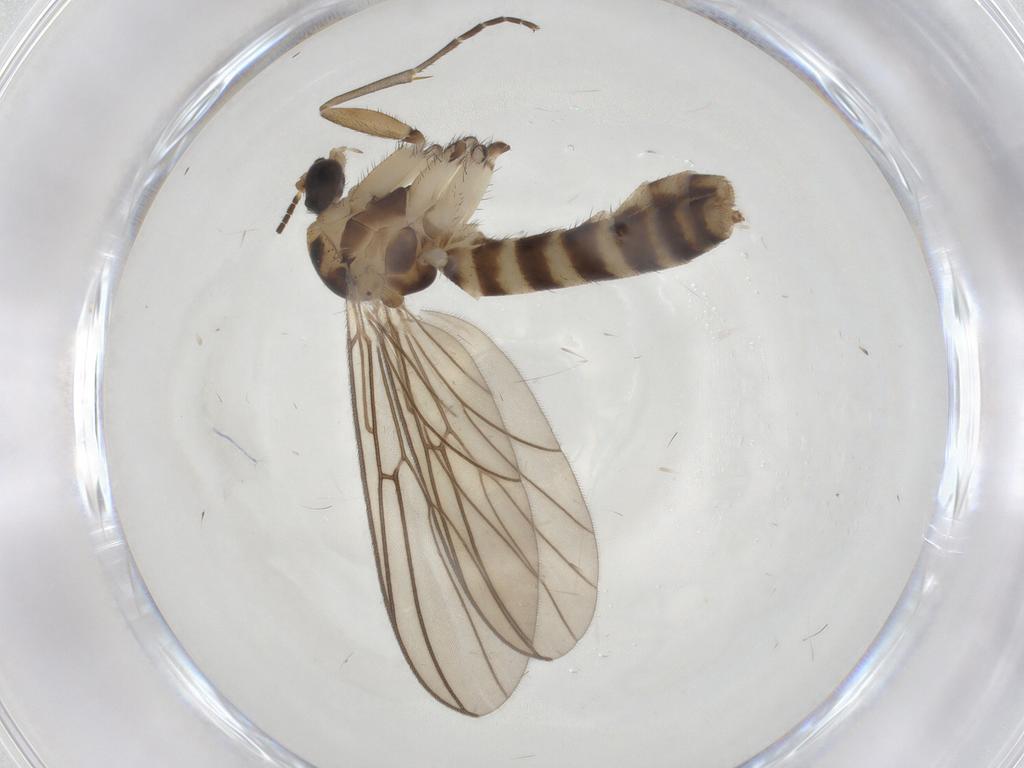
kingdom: Animalia
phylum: Arthropoda
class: Insecta
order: Diptera
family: Mycetophilidae
